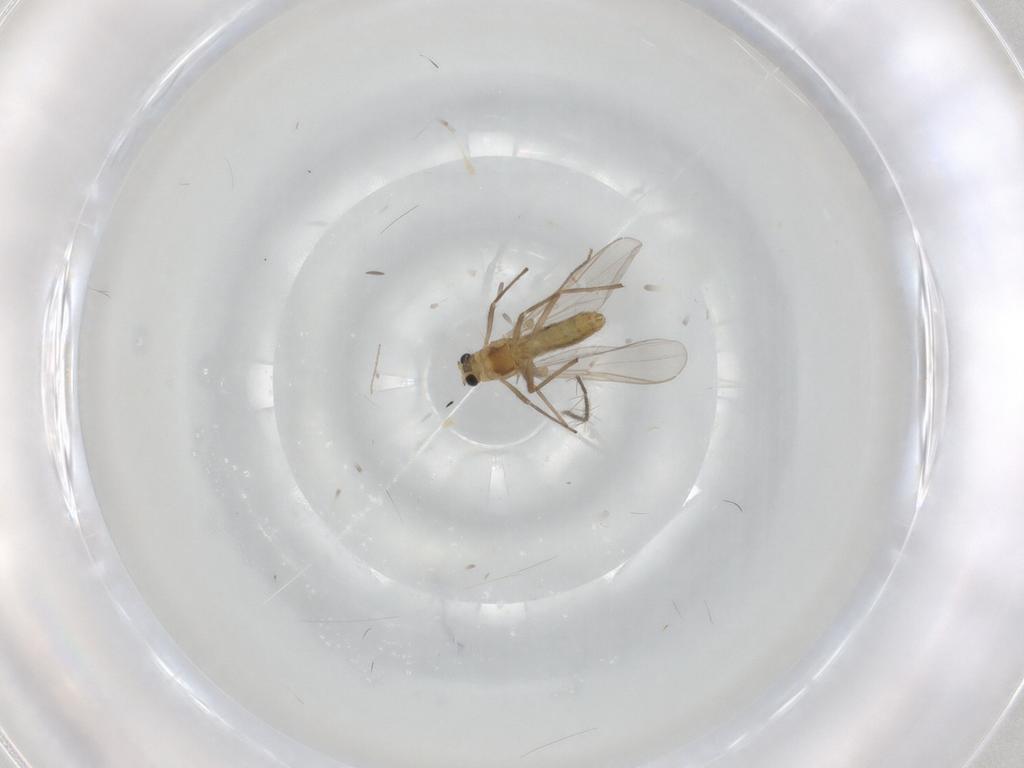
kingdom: Animalia
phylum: Arthropoda
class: Insecta
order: Diptera
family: Chironomidae
